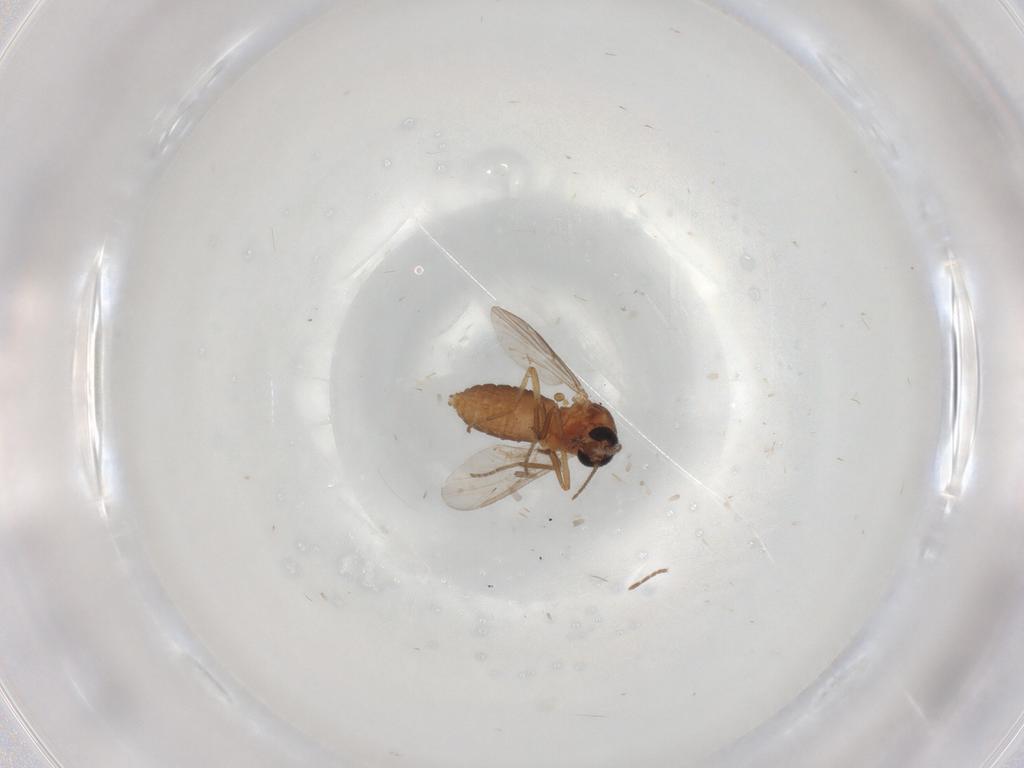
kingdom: Animalia
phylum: Arthropoda
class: Insecta
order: Diptera
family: Ceratopogonidae
